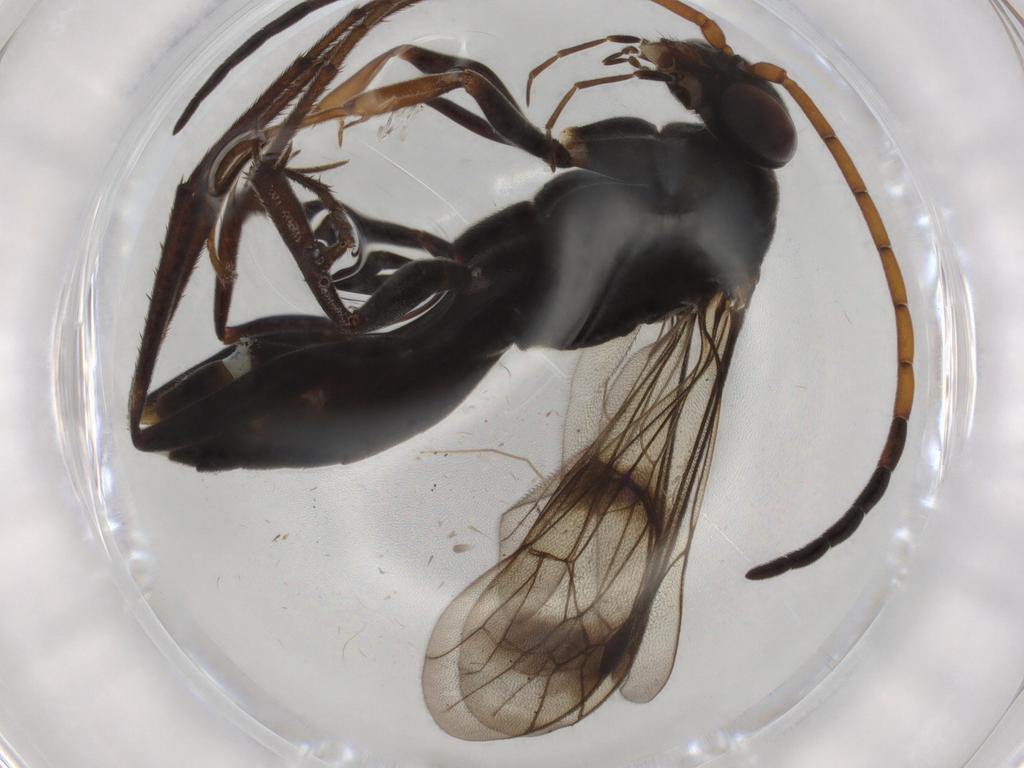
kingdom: Animalia
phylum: Arthropoda
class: Insecta
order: Hymenoptera
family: Pompilidae
